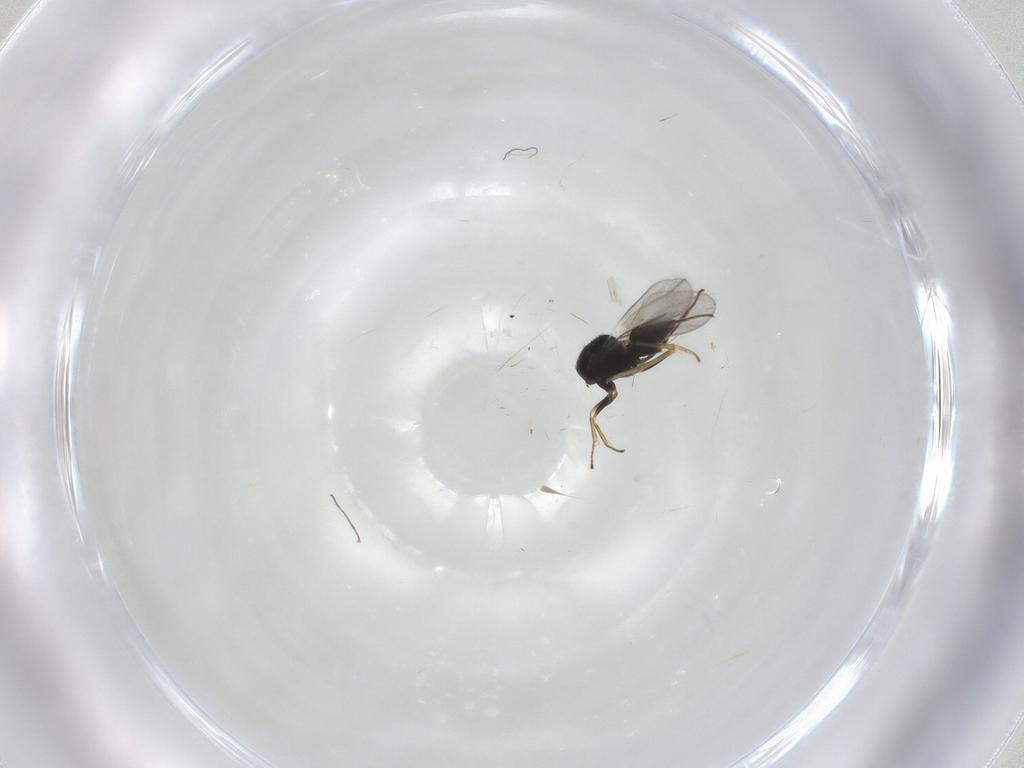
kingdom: Animalia
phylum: Arthropoda
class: Insecta
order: Hymenoptera
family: Encyrtidae
